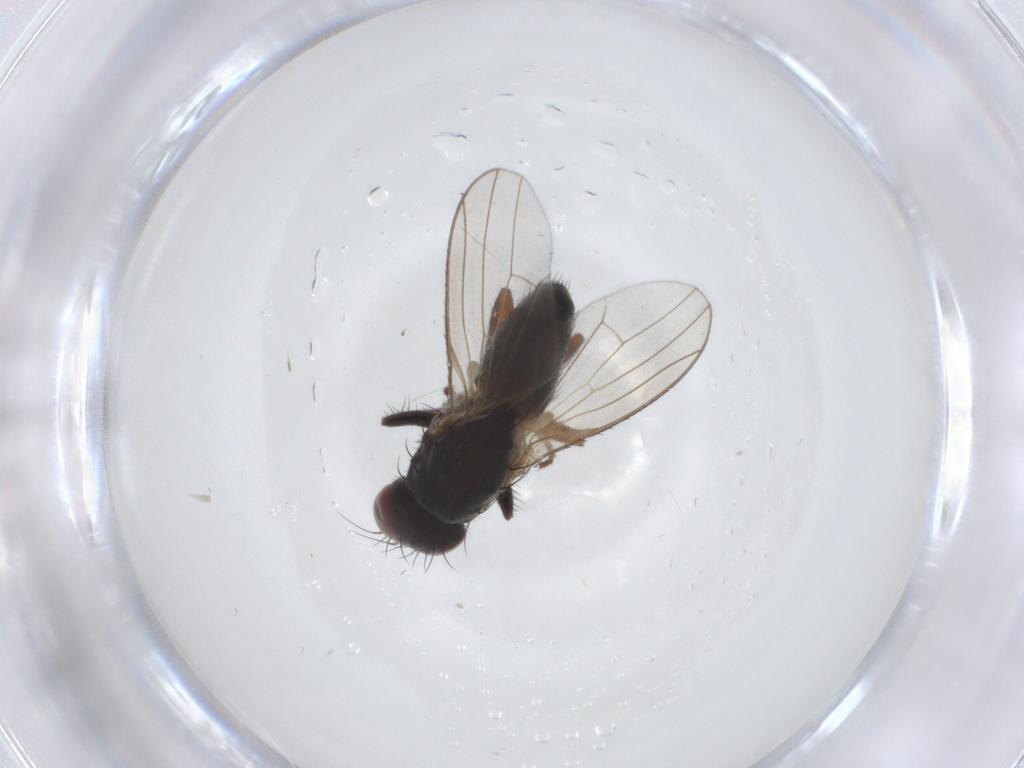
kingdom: Animalia
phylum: Arthropoda
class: Insecta
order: Diptera
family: Heleomyzidae
